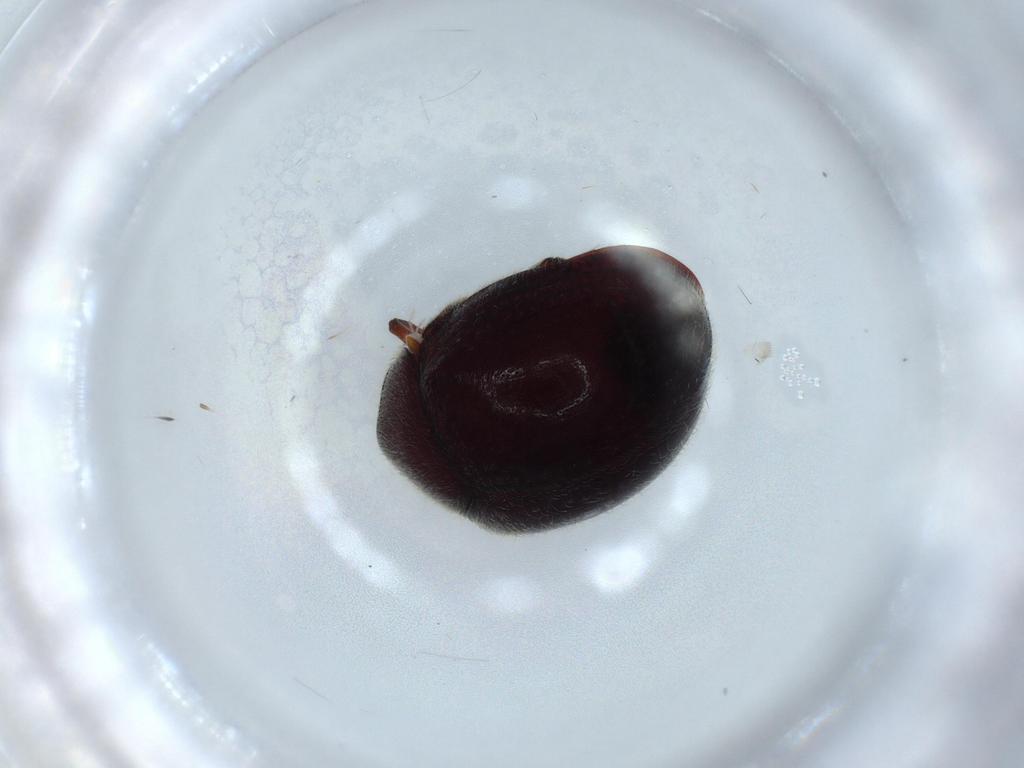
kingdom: Animalia
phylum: Arthropoda
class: Insecta
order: Coleoptera
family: Ptinidae
